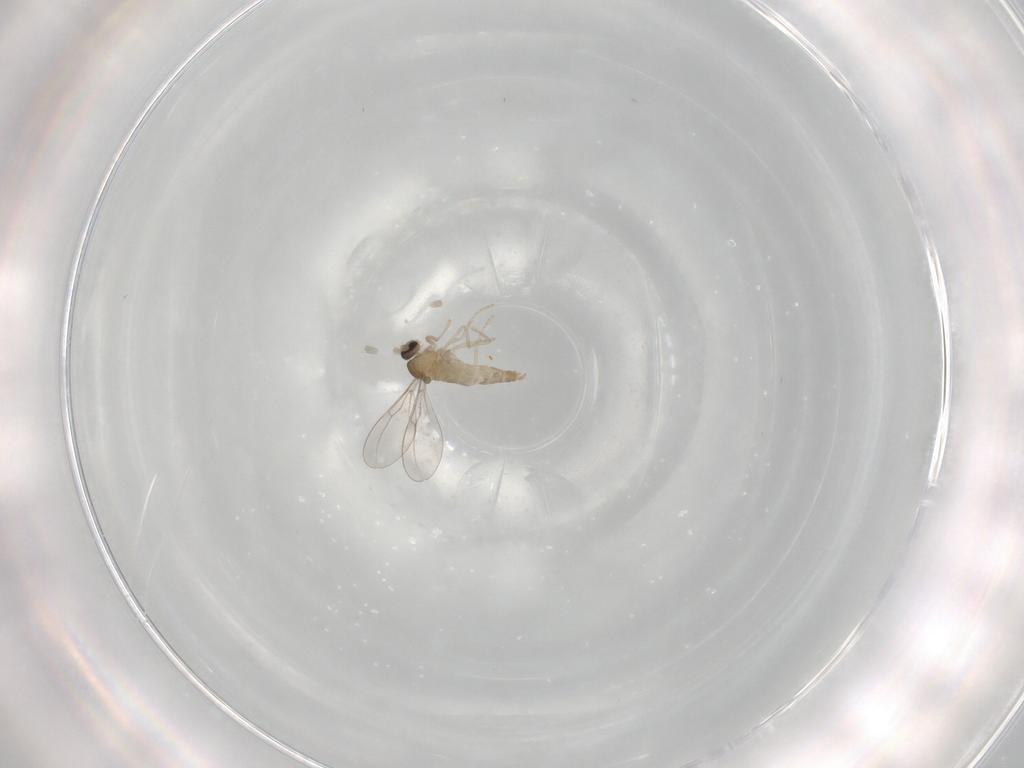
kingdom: Animalia
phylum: Arthropoda
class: Insecta
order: Diptera
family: Cecidomyiidae
